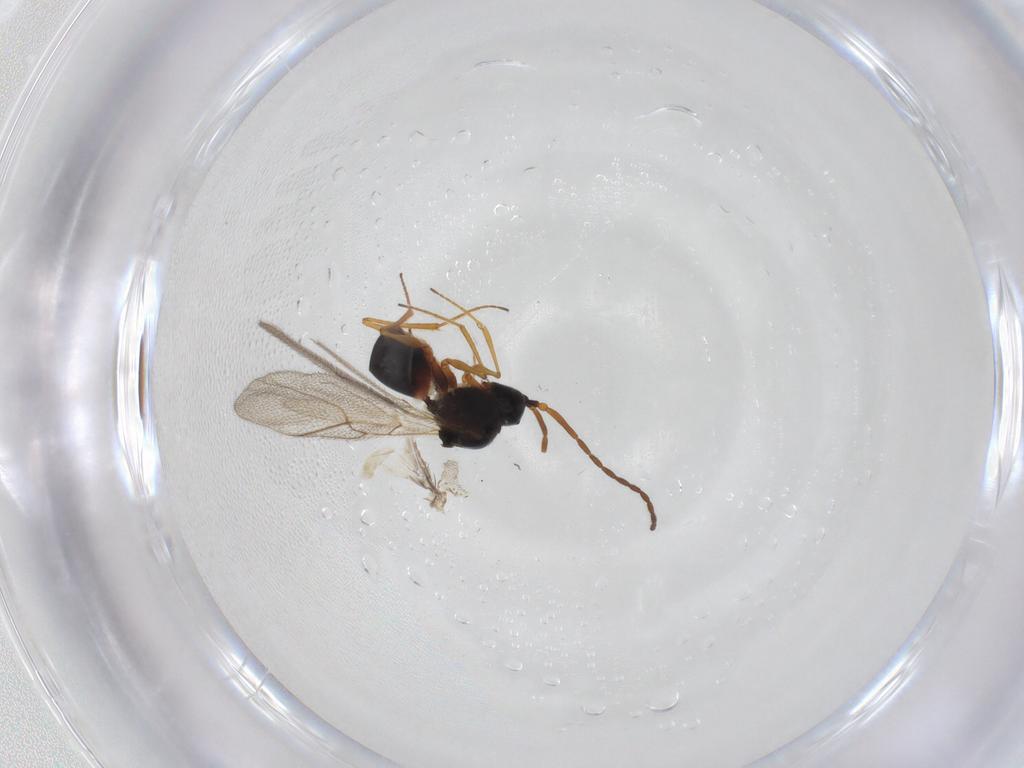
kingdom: Animalia
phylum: Arthropoda
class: Insecta
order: Hymenoptera
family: Figitidae
